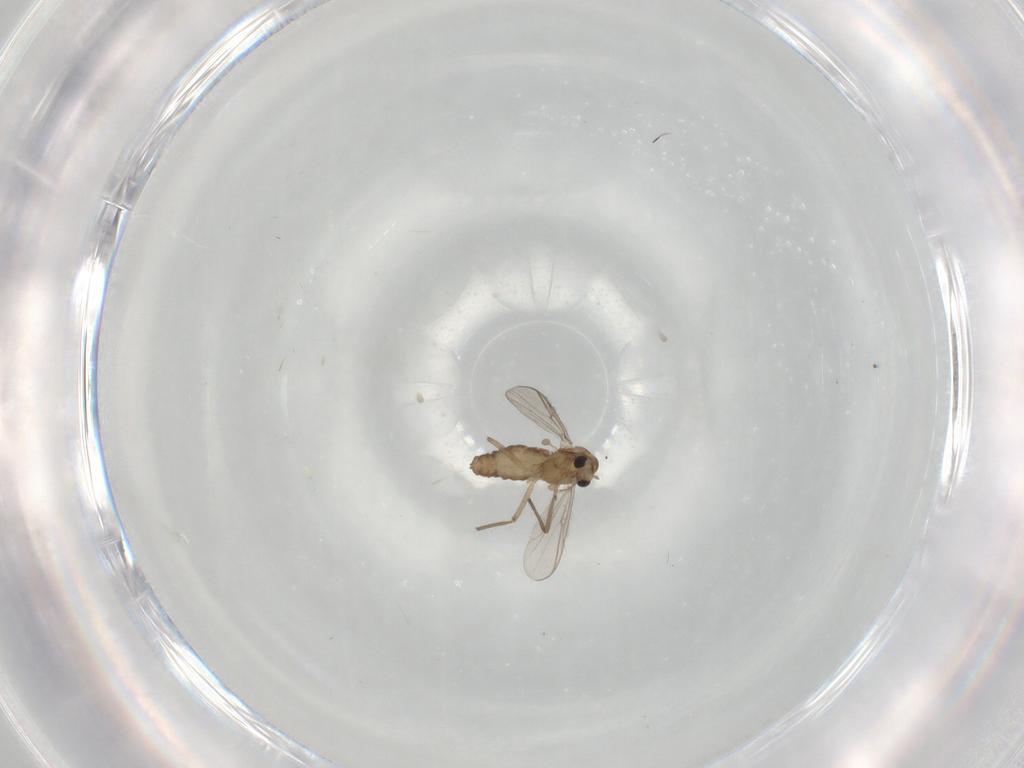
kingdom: Animalia
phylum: Arthropoda
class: Insecta
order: Diptera
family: Chironomidae
